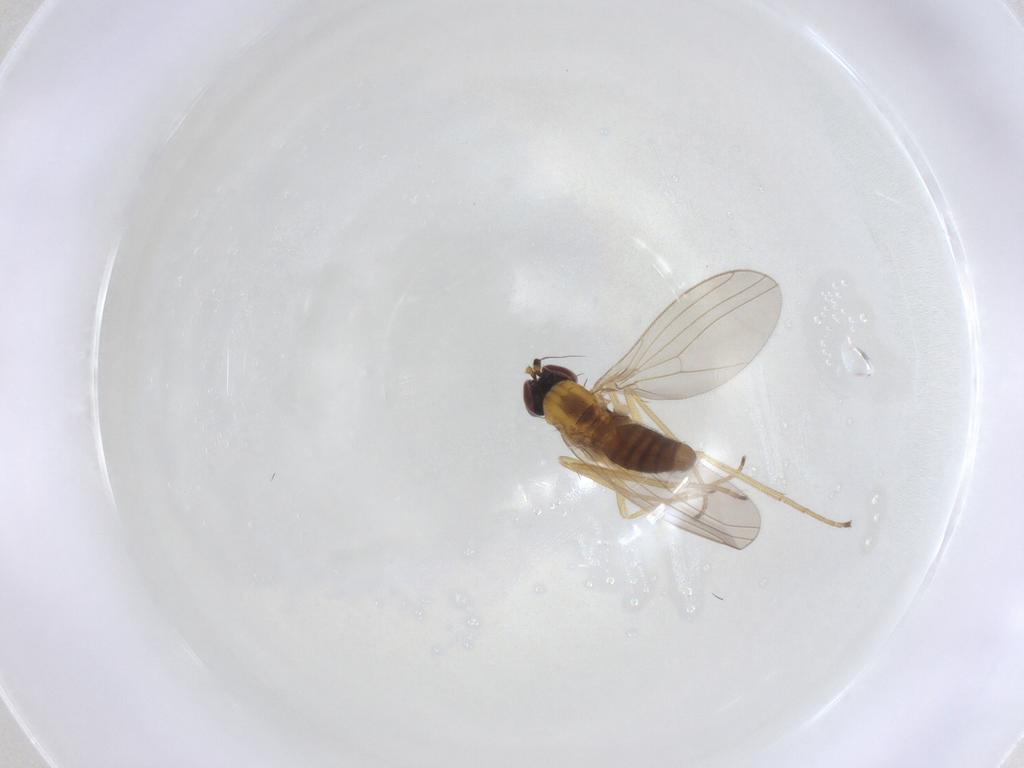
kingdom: Animalia
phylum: Arthropoda
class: Insecta
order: Diptera
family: Dolichopodidae
